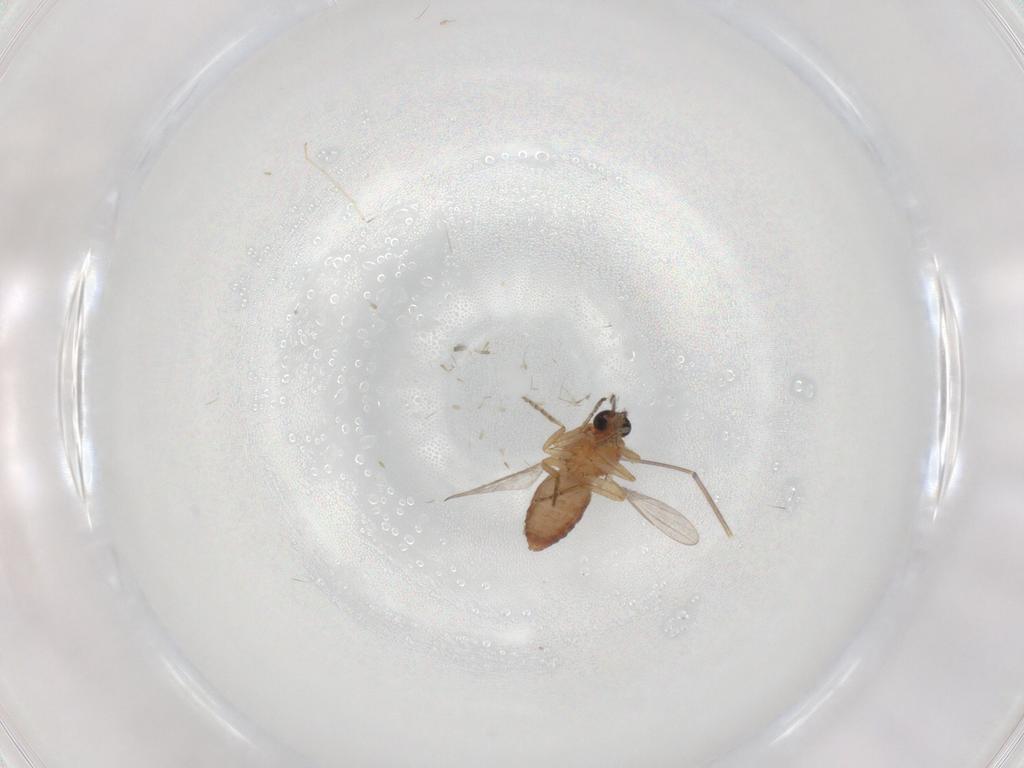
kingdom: Animalia
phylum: Arthropoda
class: Insecta
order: Diptera
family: Ceratopogonidae
